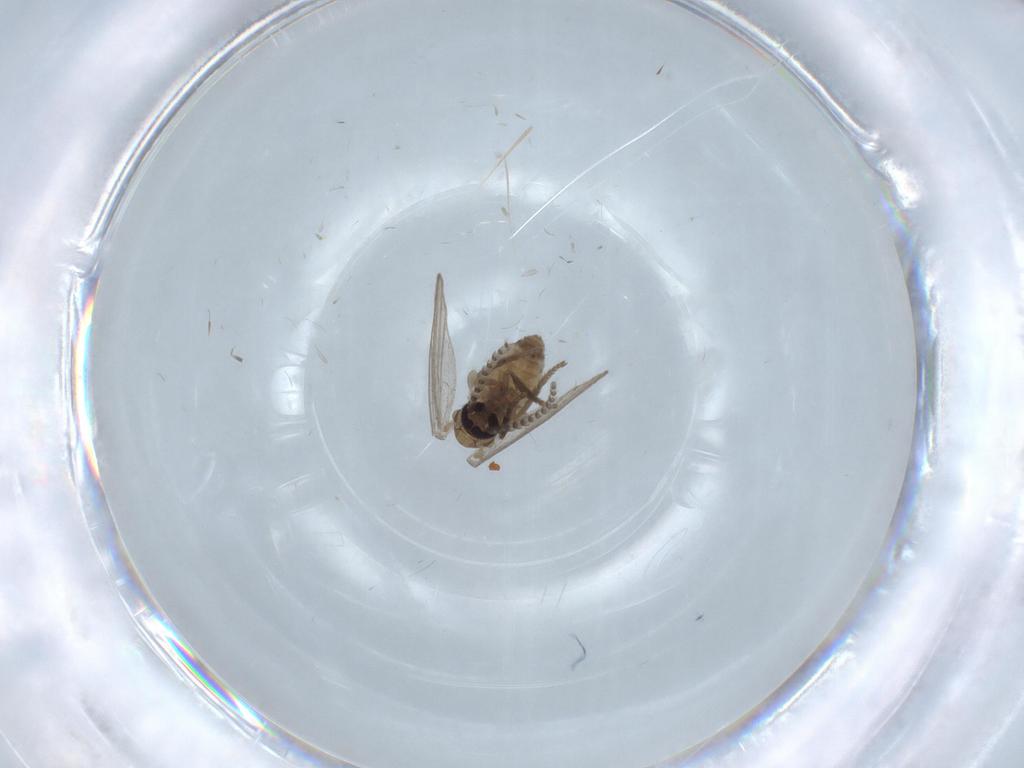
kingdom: Animalia
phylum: Arthropoda
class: Insecta
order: Diptera
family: Psychodidae
